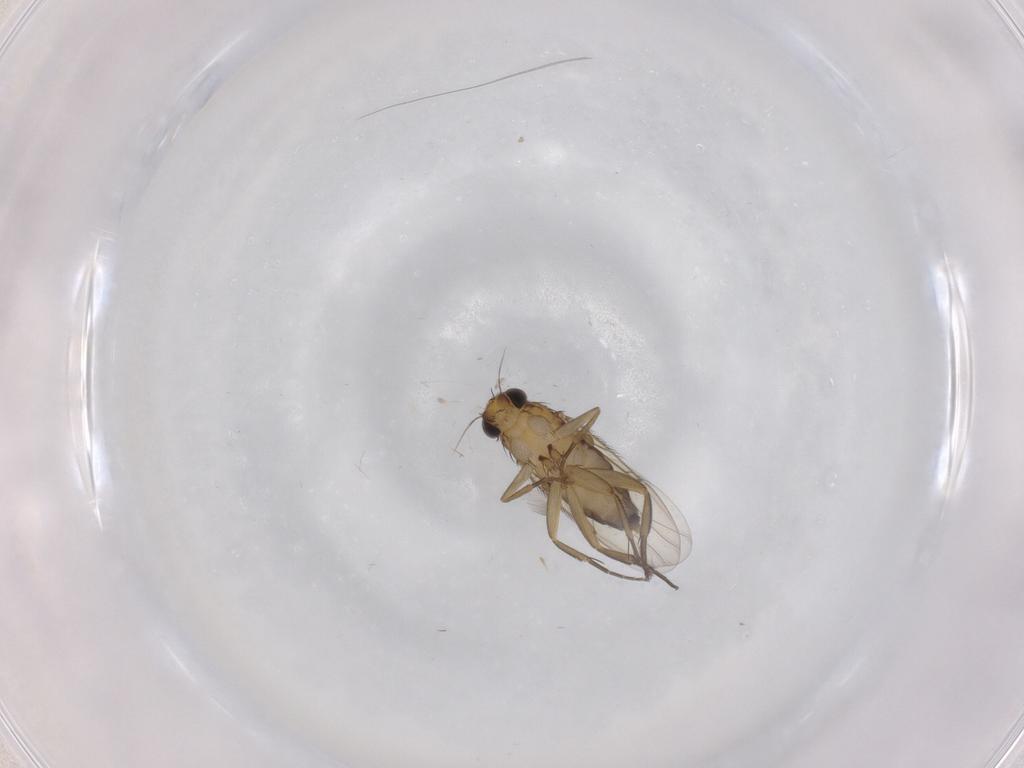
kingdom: Animalia
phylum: Arthropoda
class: Insecta
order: Diptera
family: Phoridae
